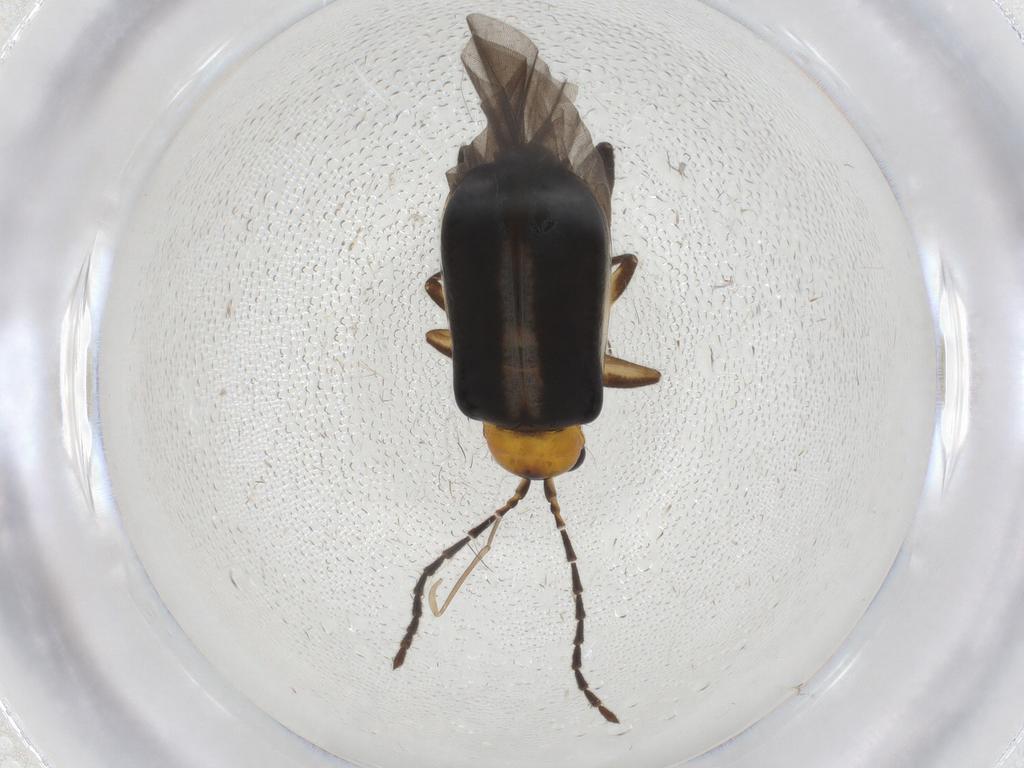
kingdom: Animalia
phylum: Arthropoda
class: Insecta
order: Coleoptera
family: Chrysomelidae
